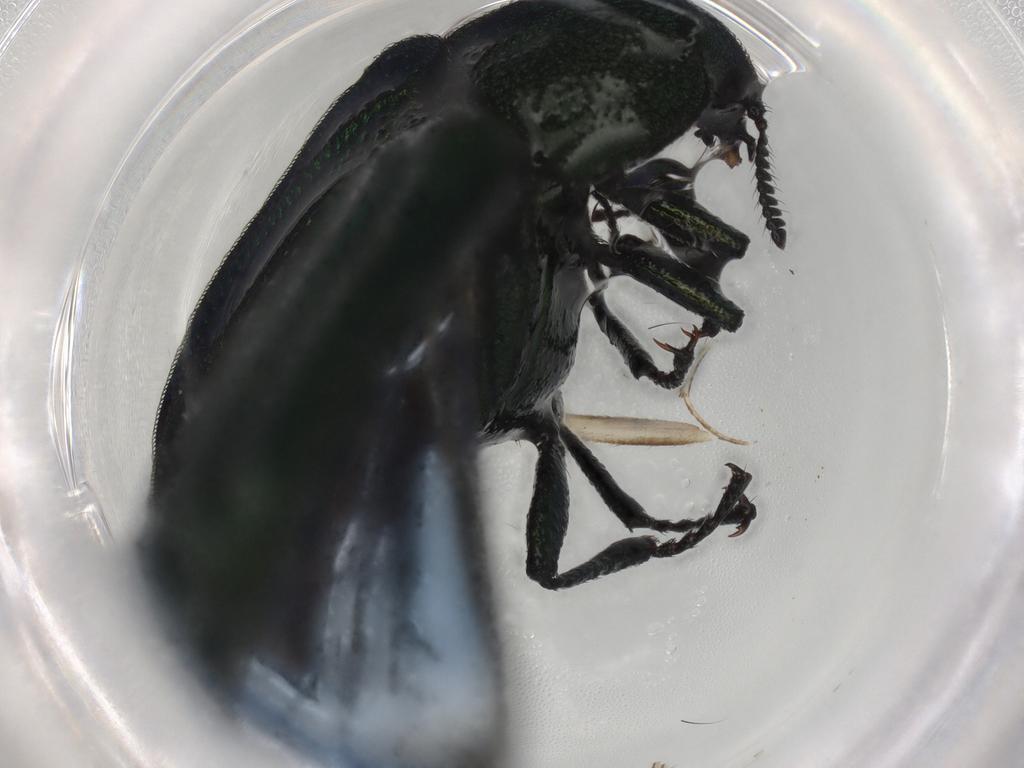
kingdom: Animalia
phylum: Arthropoda
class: Insecta
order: Coleoptera
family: Melyridae
